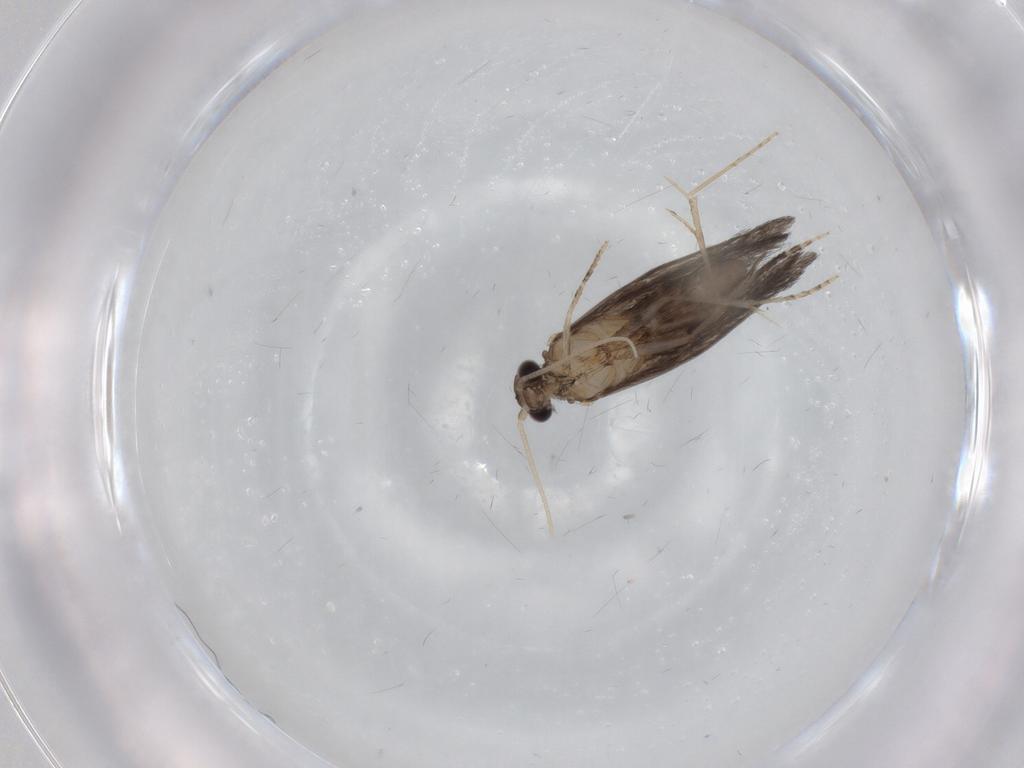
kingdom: Animalia
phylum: Arthropoda
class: Insecta
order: Trichoptera
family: Hydroptilidae
